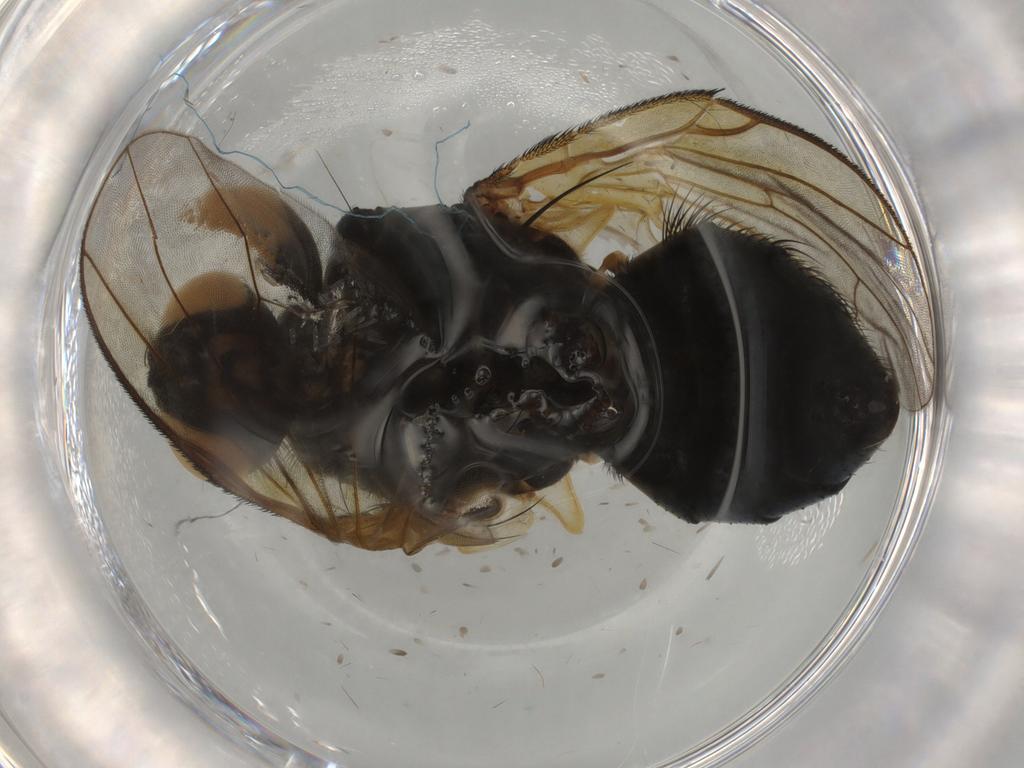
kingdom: Animalia
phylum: Arthropoda
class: Insecta
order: Diptera
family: Muscidae
